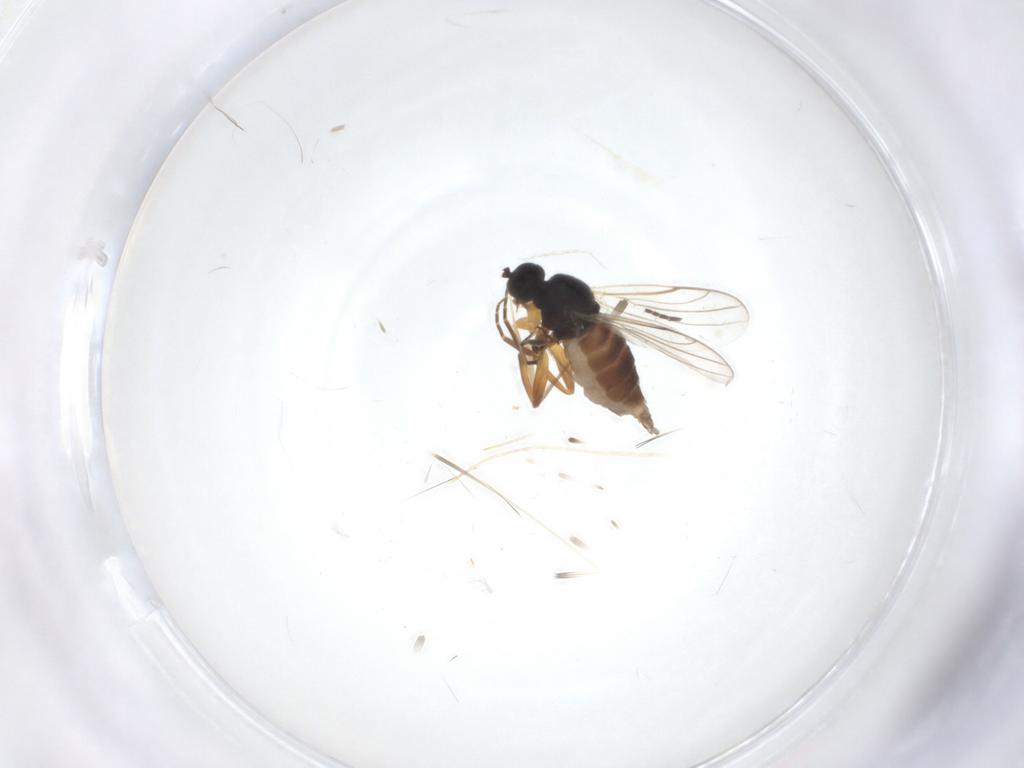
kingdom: Animalia
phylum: Arthropoda
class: Insecta
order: Diptera
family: Hybotidae
